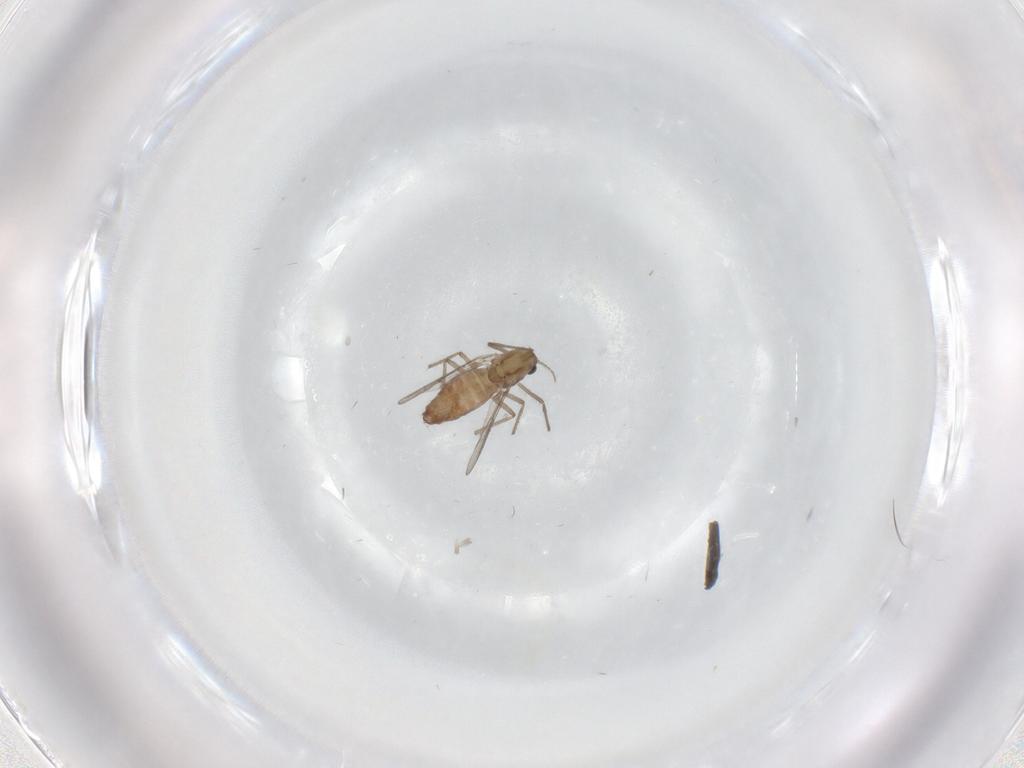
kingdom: Animalia
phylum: Arthropoda
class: Insecta
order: Diptera
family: Chironomidae
